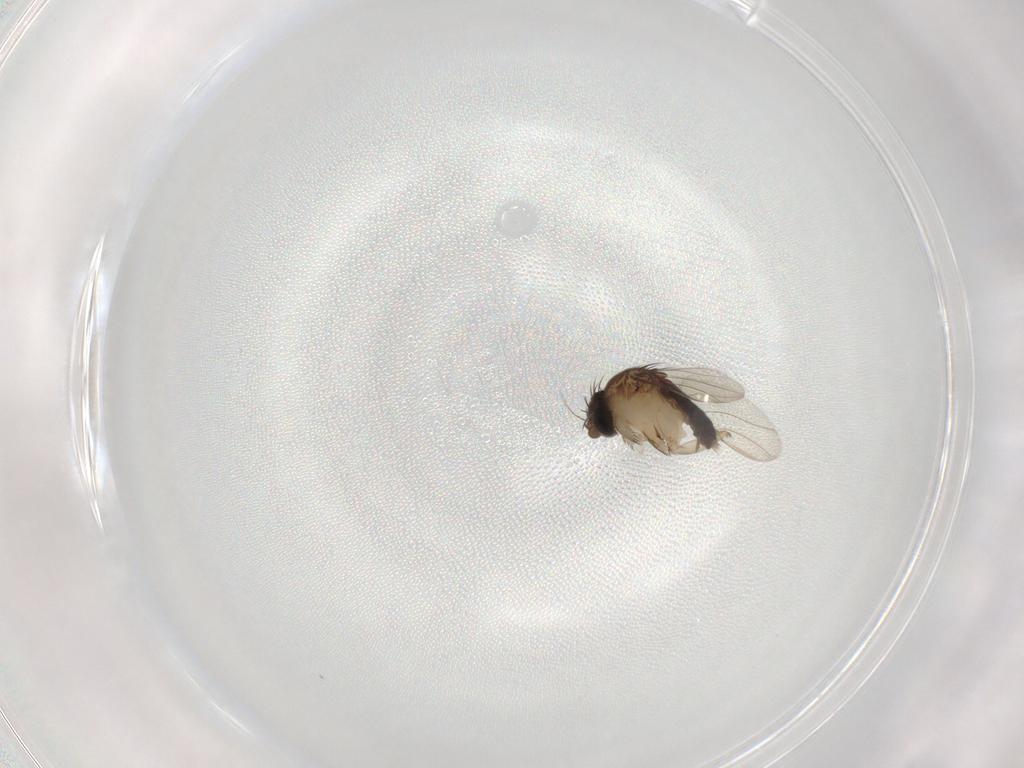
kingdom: Animalia
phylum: Arthropoda
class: Insecta
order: Diptera
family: Phoridae
